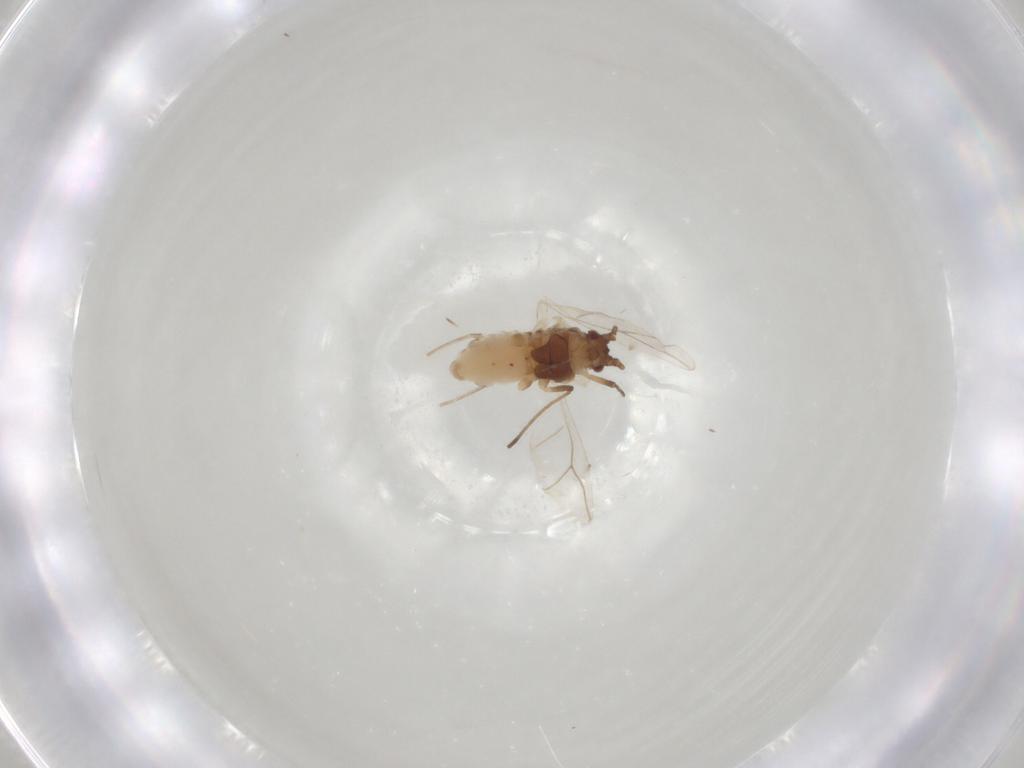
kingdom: Animalia
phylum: Arthropoda
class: Insecta
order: Hemiptera
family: Aphididae
